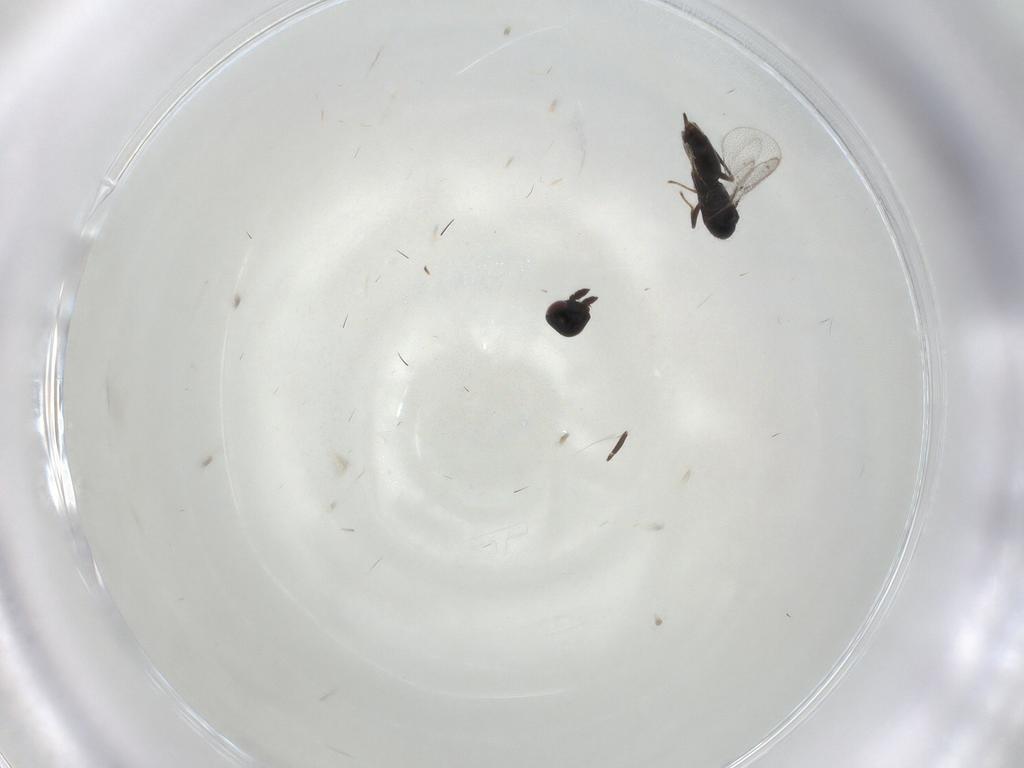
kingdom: Animalia
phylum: Arthropoda
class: Insecta
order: Hymenoptera
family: Pteromalidae
